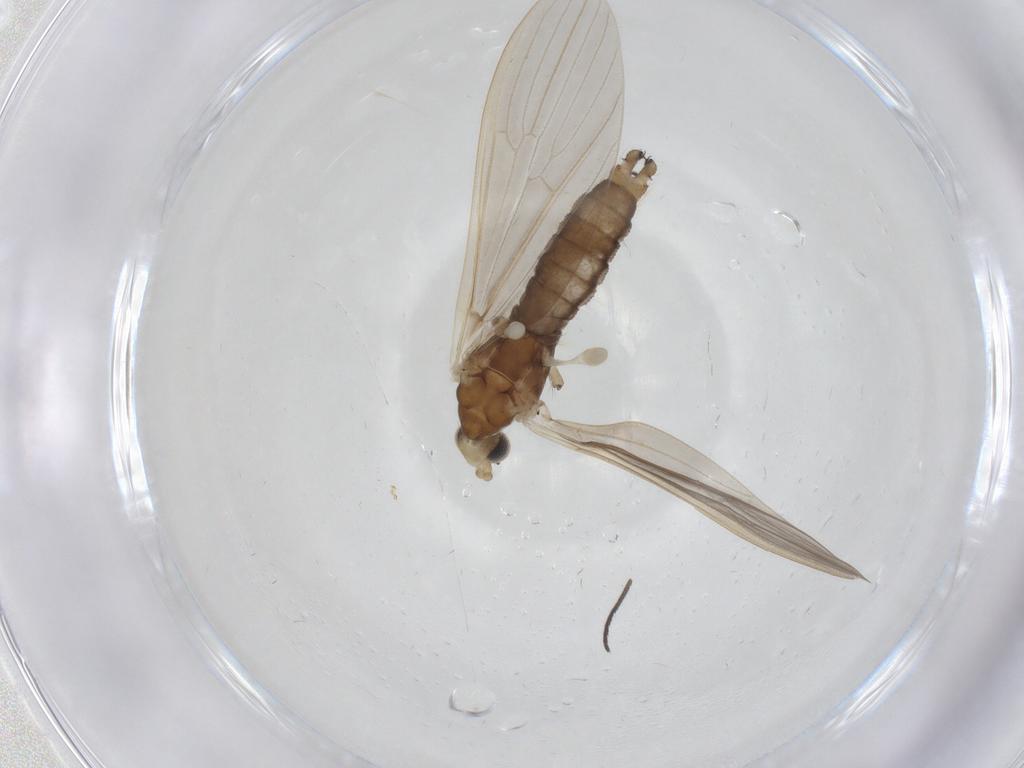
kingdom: Animalia
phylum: Arthropoda
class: Insecta
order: Diptera
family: Limoniidae
